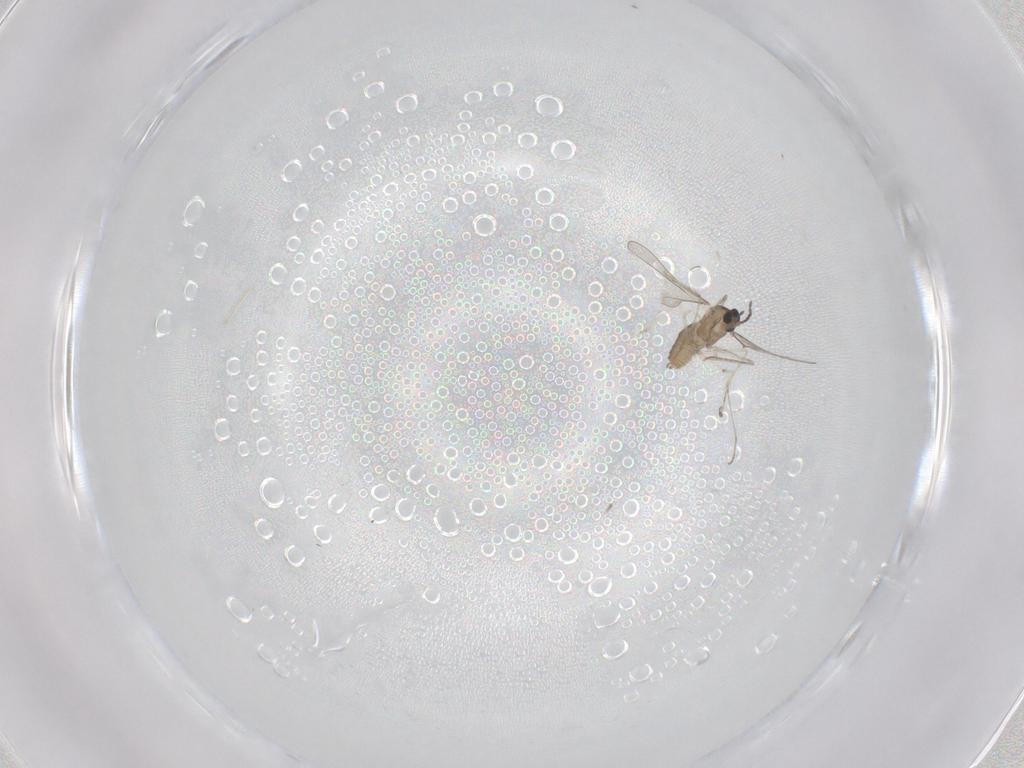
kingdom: Animalia
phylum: Arthropoda
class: Insecta
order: Diptera
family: Cecidomyiidae
